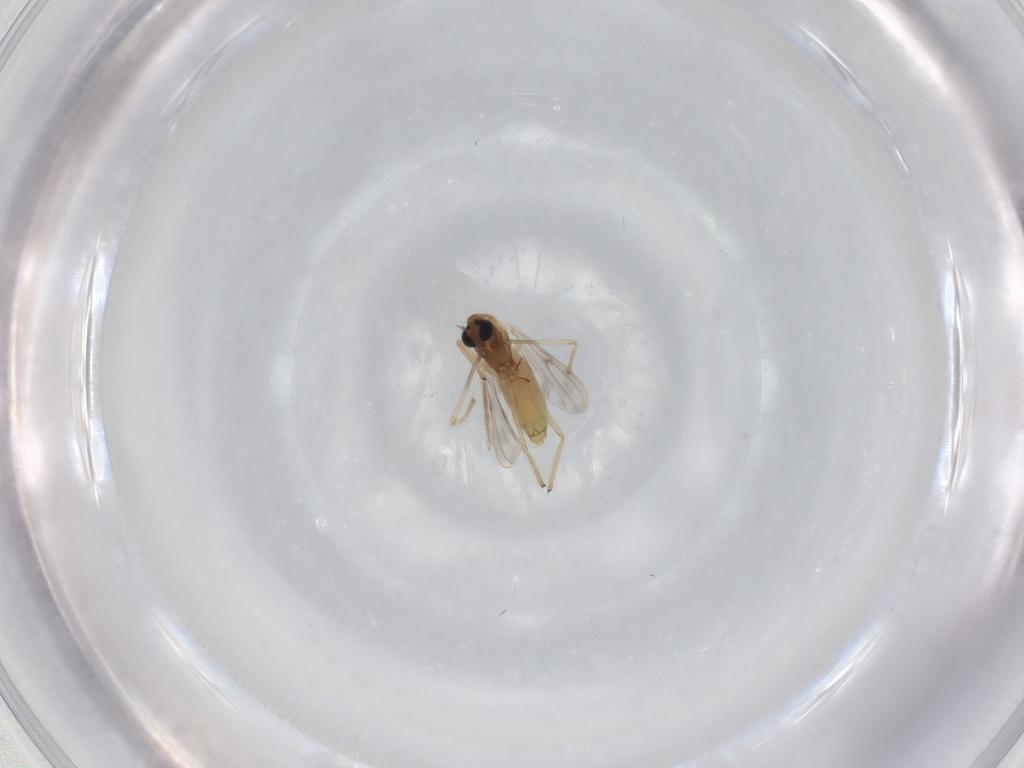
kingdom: Animalia
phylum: Arthropoda
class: Insecta
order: Diptera
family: Chironomidae
